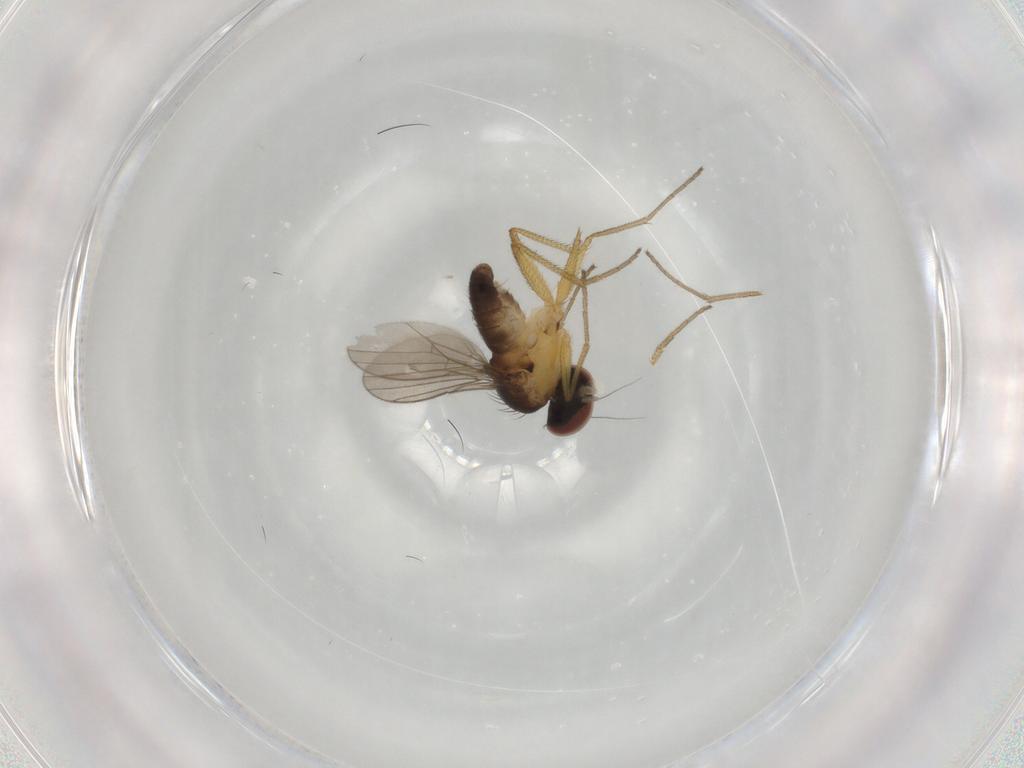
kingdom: Animalia
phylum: Arthropoda
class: Insecta
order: Diptera
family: Dolichopodidae
